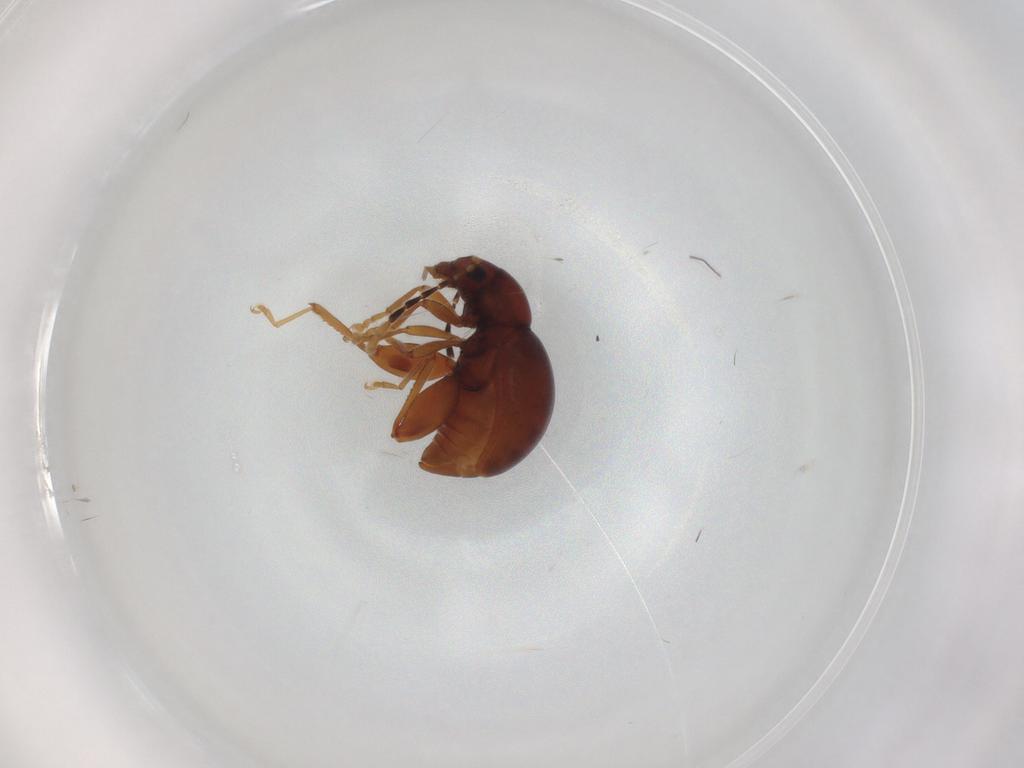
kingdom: Animalia
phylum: Arthropoda
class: Insecta
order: Coleoptera
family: Chrysomelidae
